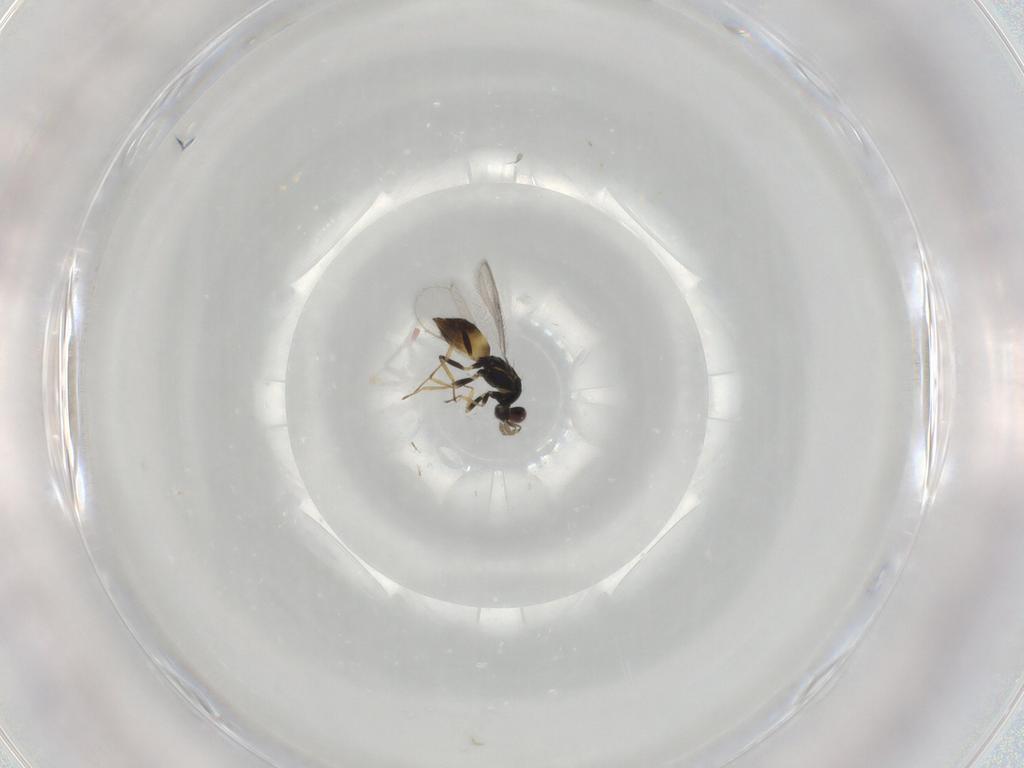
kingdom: Animalia
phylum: Arthropoda
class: Insecta
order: Hymenoptera
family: Eulophidae
